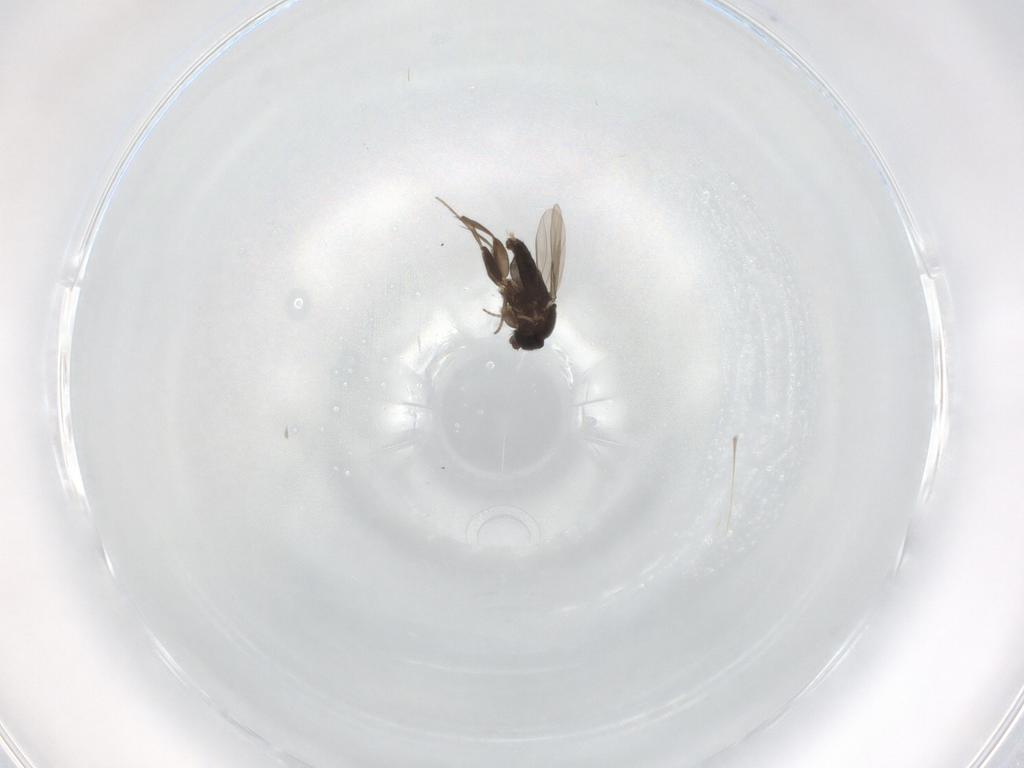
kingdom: Animalia
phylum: Arthropoda
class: Insecta
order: Diptera
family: Phoridae
